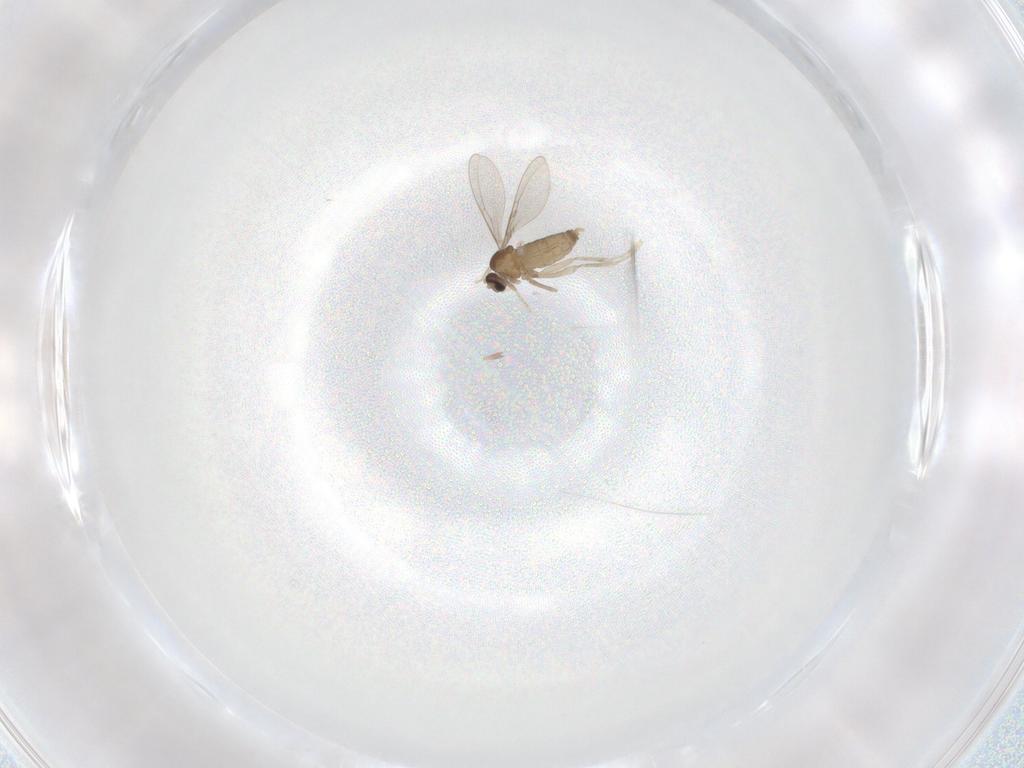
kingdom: Animalia
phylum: Arthropoda
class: Insecta
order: Diptera
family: Cecidomyiidae
